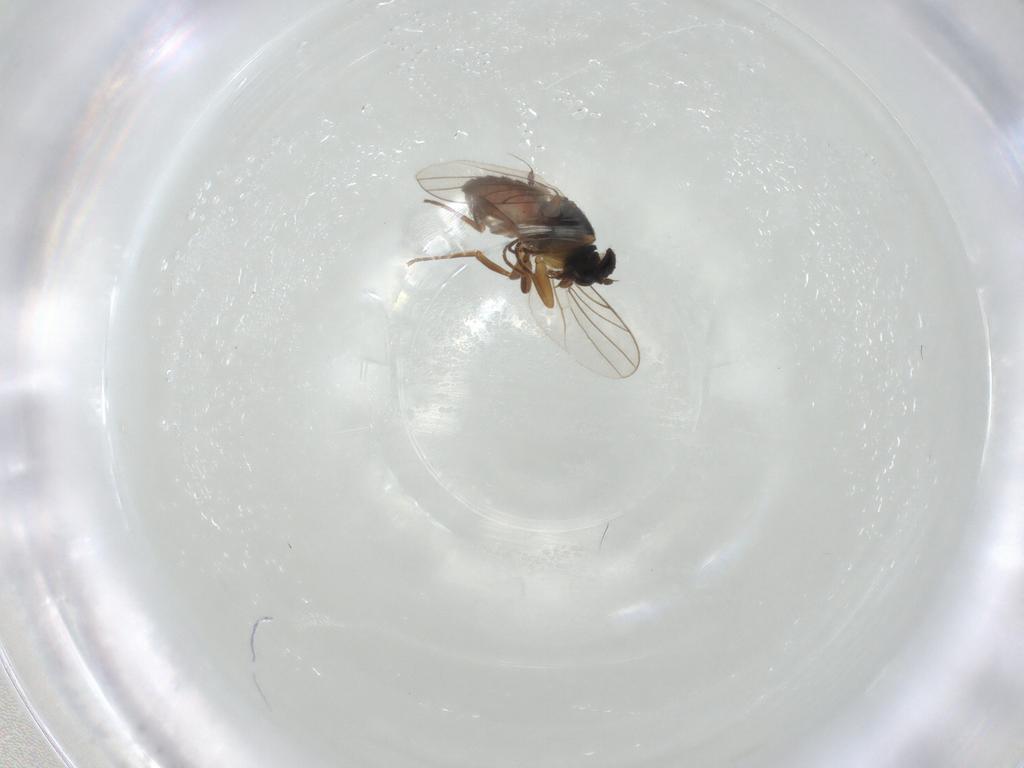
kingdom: Animalia
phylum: Arthropoda
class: Insecta
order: Diptera
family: Hybotidae
